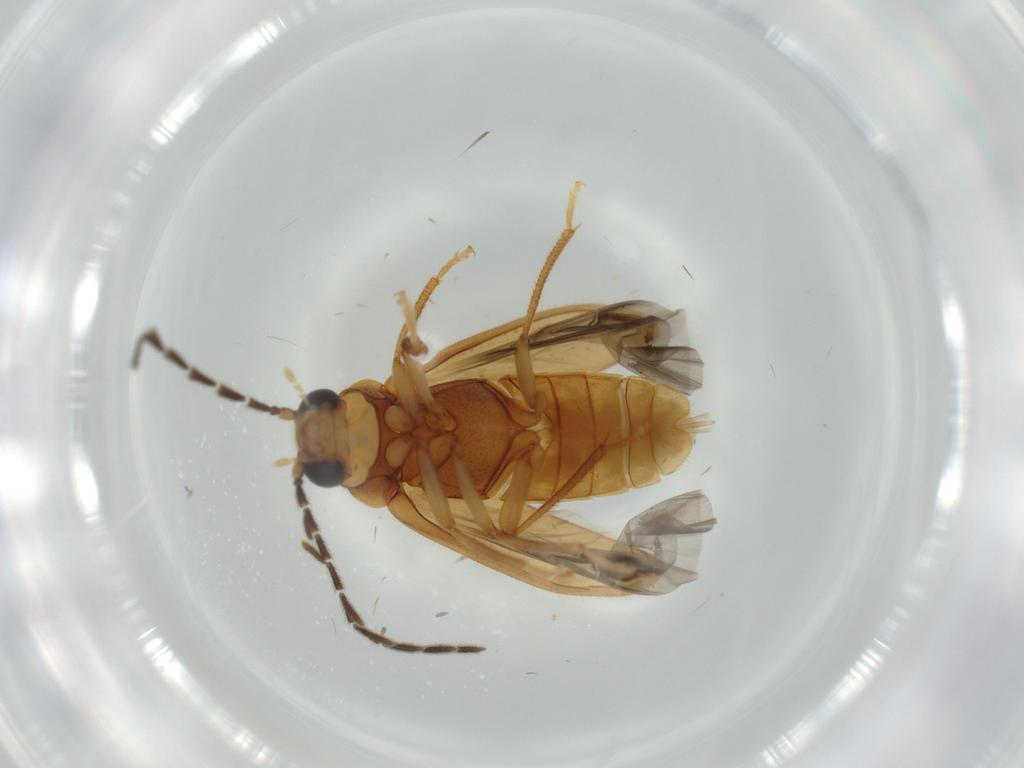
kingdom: Animalia
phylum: Arthropoda
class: Insecta
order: Coleoptera
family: Ptilodactylidae
